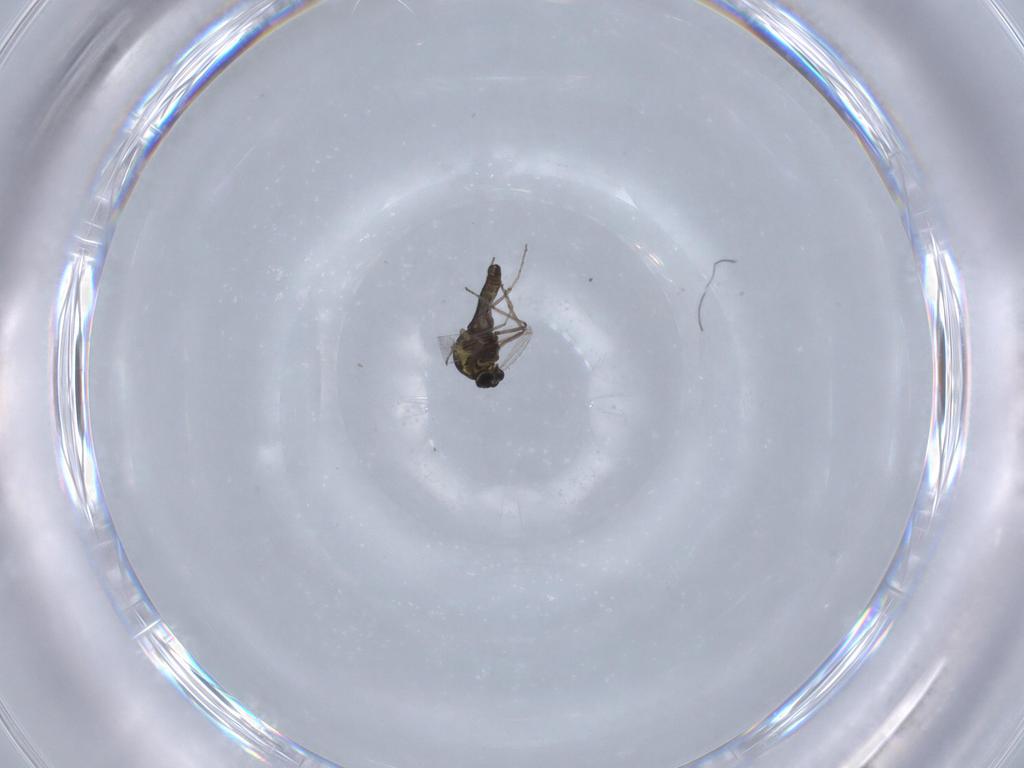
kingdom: Animalia
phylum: Arthropoda
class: Insecta
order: Diptera
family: Ceratopogonidae
